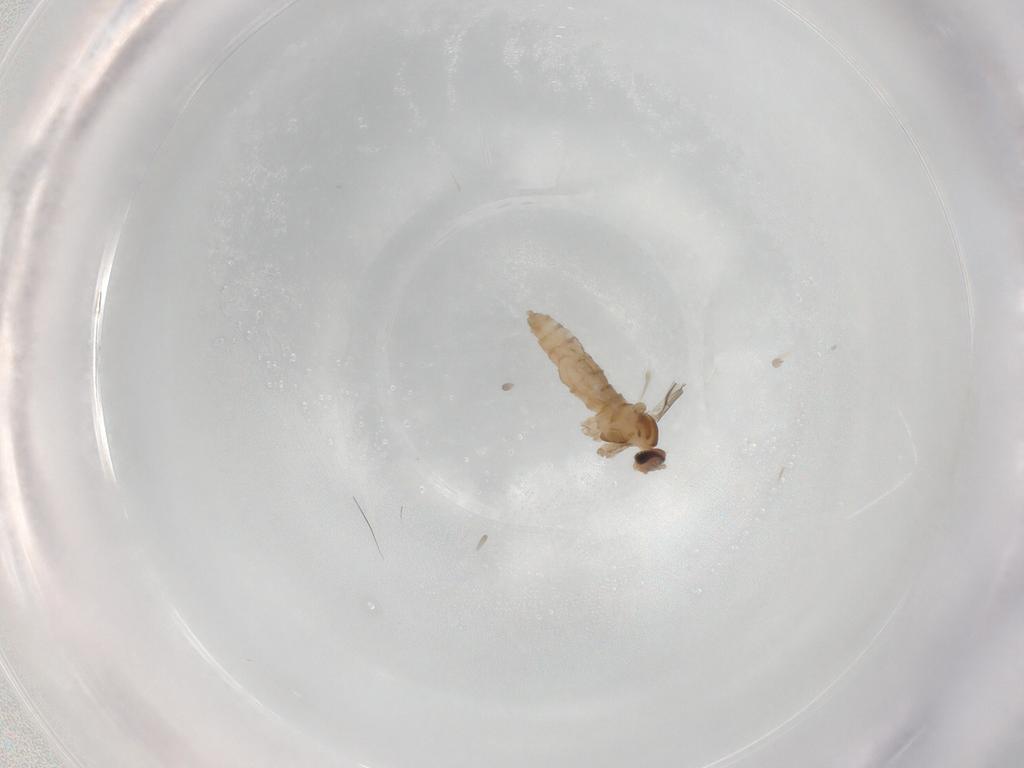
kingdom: Animalia
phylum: Arthropoda
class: Insecta
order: Diptera
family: Cecidomyiidae
